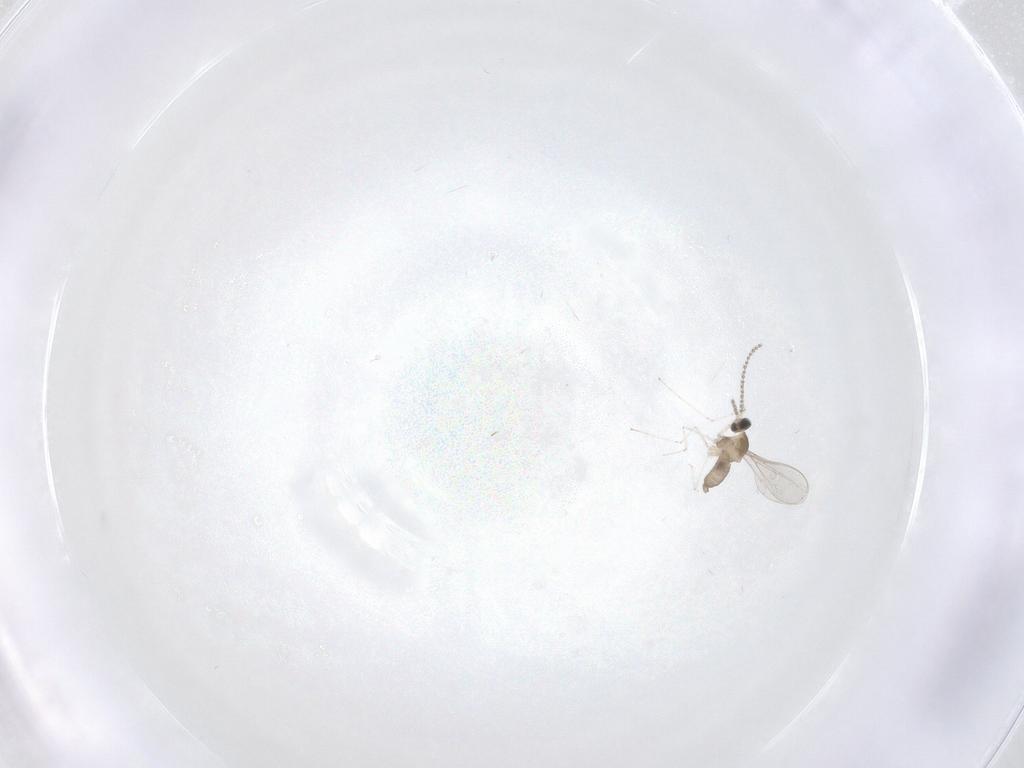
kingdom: Animalia
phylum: Arthropoda
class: Insecta
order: Diptera
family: Cecidomyiidae
